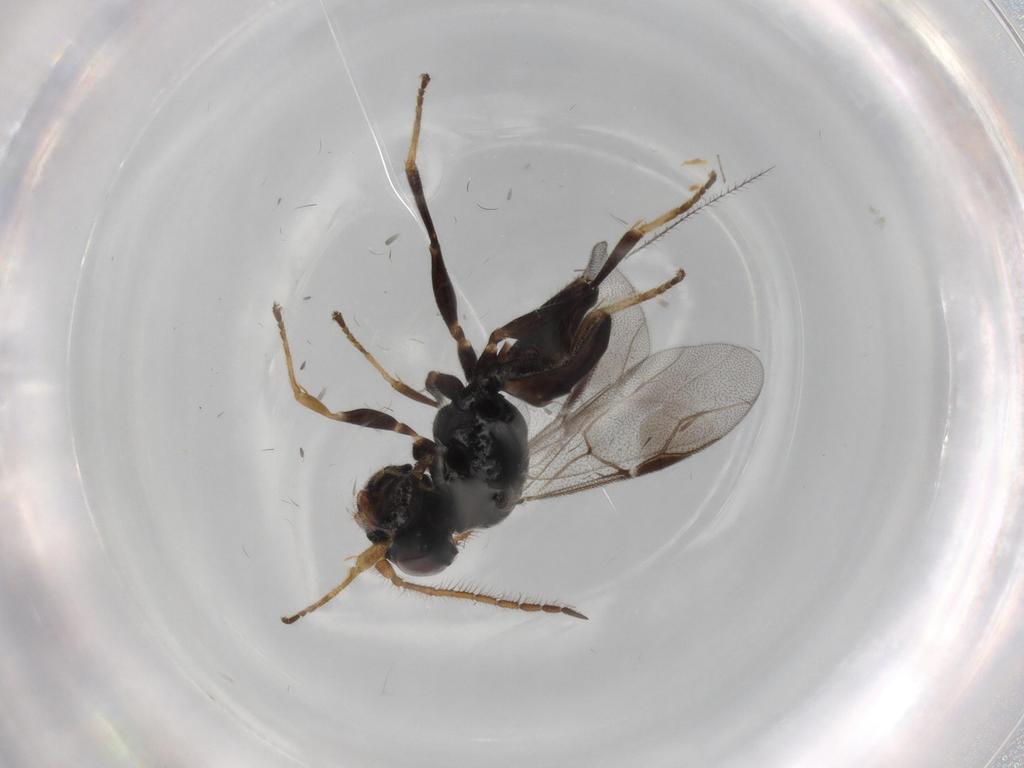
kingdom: Animalia
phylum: Arthropoda
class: Insecta
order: Hymenoptera
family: Dryinidae
